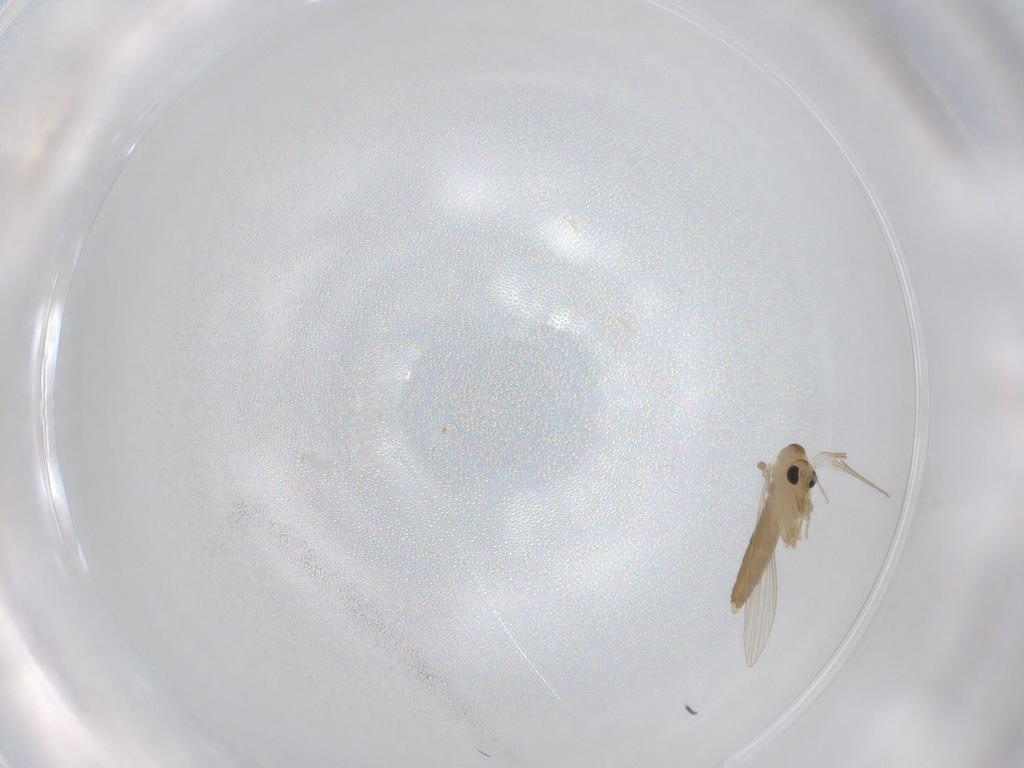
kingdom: Animalia
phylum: Arthropoda
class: Insecta
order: Diptera
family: Psychodidae
